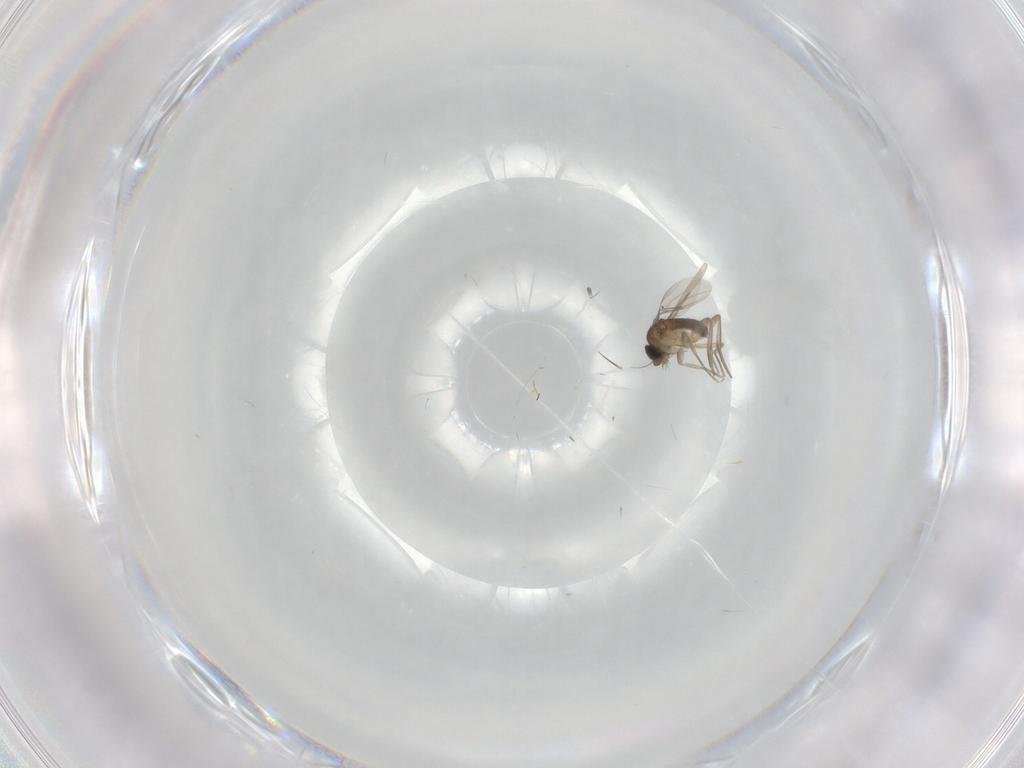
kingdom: Animalia
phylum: Arthropoda
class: Insecta
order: Diptera
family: Phoridae
